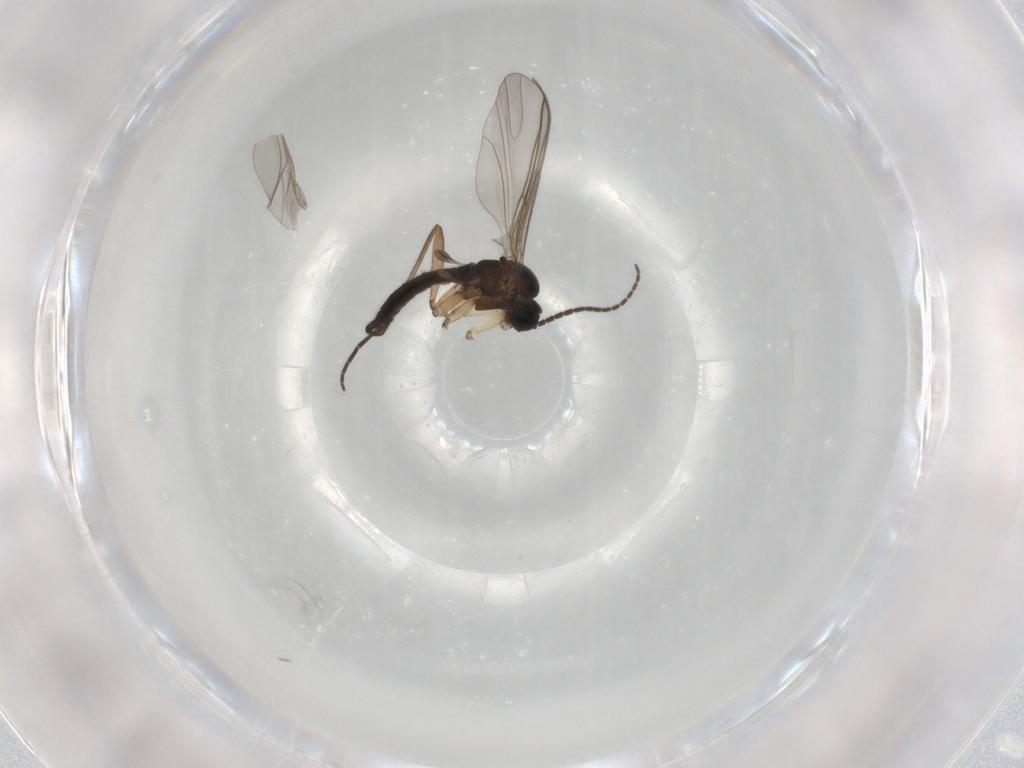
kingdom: Animalia
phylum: Arthropoda
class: Insecta
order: Diptera
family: Sciaridae
